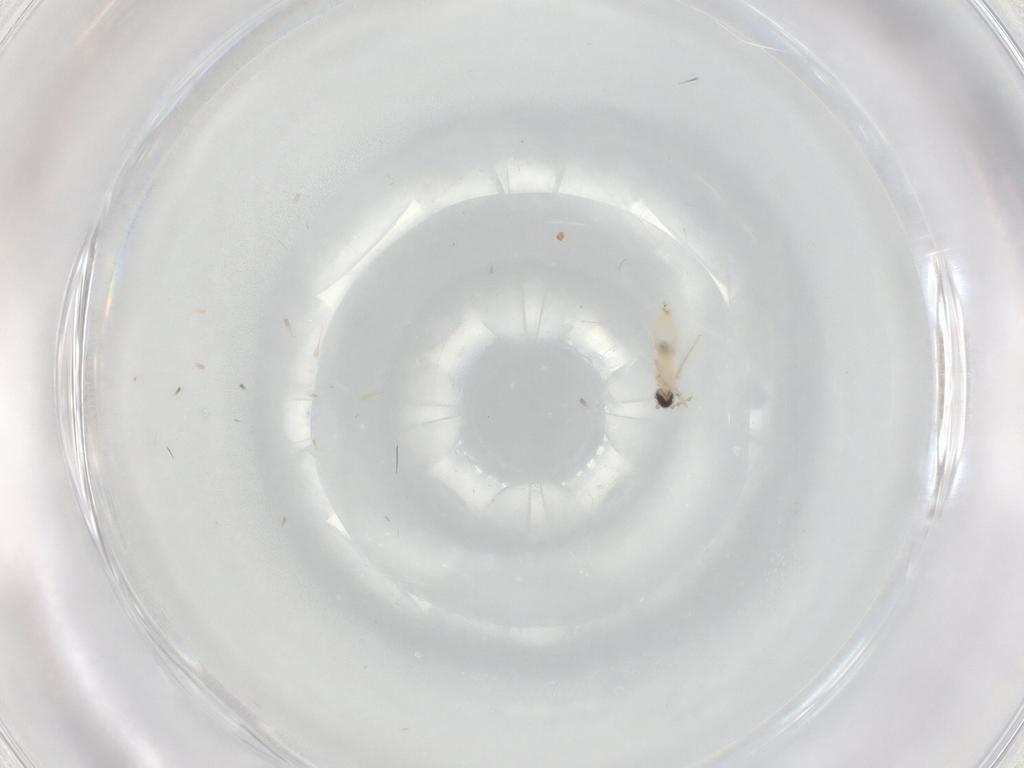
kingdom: Animalia
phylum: Arthropoda
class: Insecta
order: Diptera
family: Cecidomyiidae
